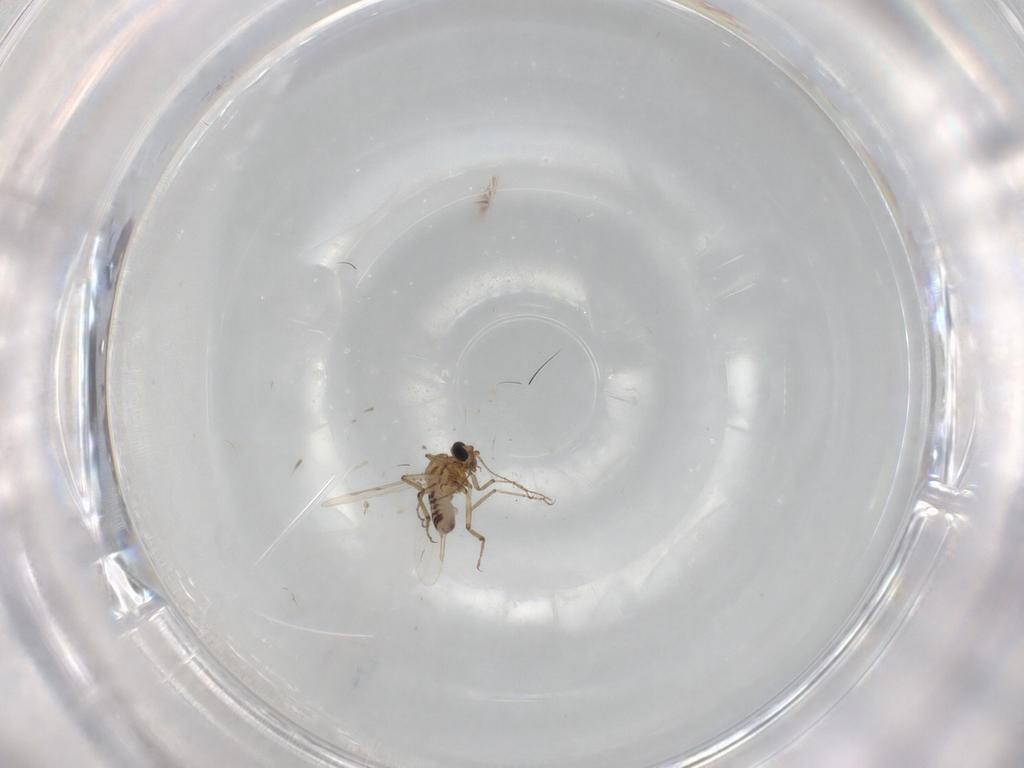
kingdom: Animalia
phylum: Arthropoda
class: Insecta
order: Diptera
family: Ceratopogonidae
